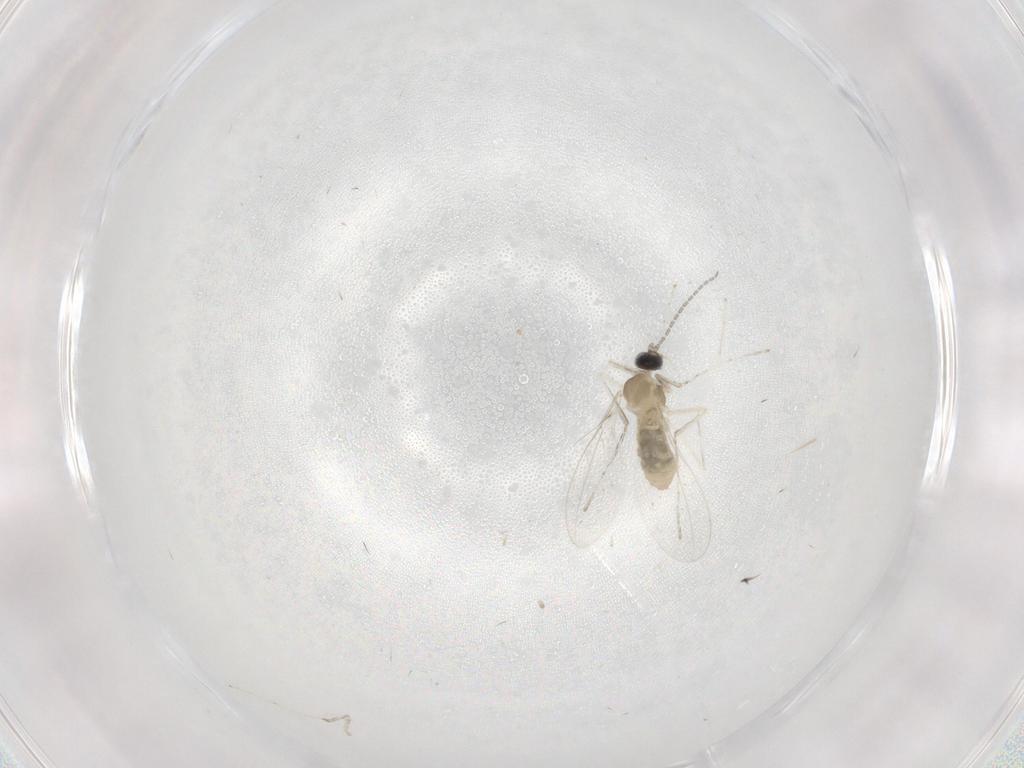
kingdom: Animalia
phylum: Arthropoda
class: Insecta
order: Diptera
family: Cecidomyiidae
